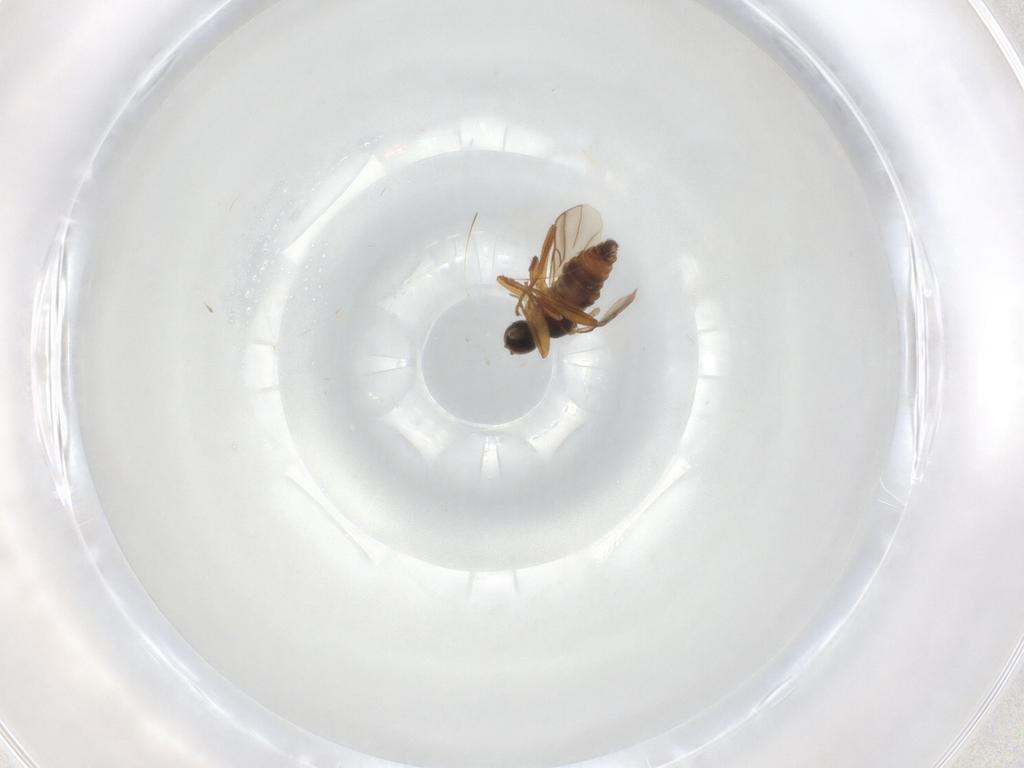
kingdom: Animalia
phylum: Arthropoda
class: Insecta
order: Diptera
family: Hybotidae
